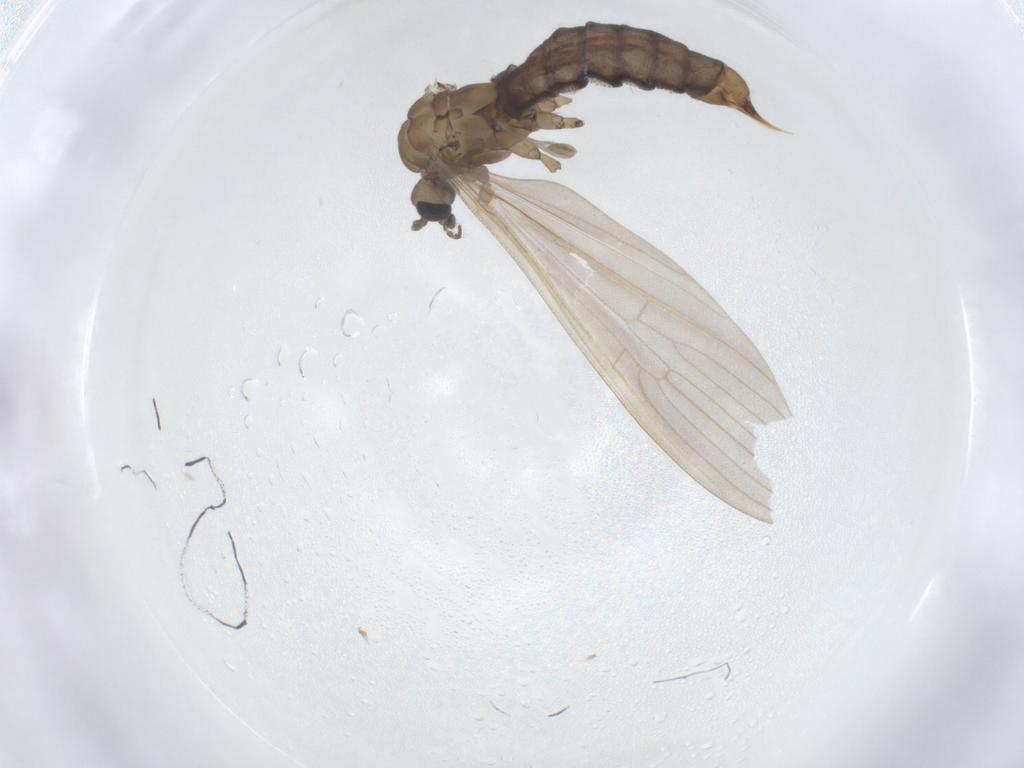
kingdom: Animalia
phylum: Arthropoda
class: Insecta
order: Diptera
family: Limoniidae
